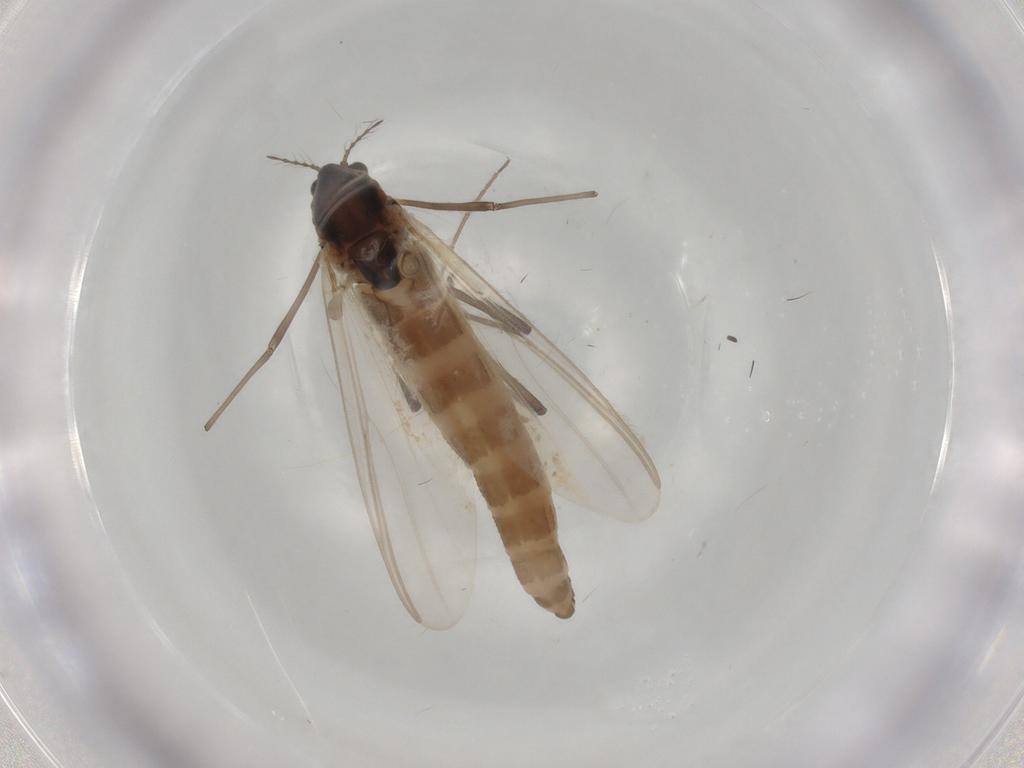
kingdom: Animalia
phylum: Arthropoda
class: Insecta
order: Diptera
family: Chironomidae
